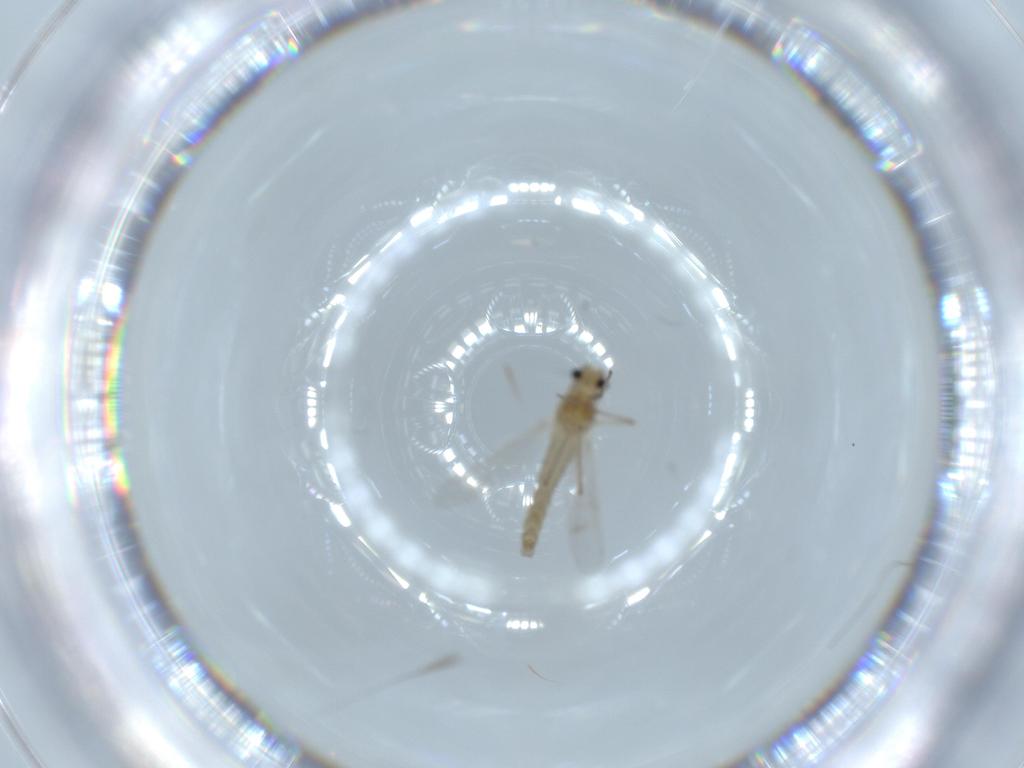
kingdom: Animalia
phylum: Arthropoda
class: Insecta
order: Diptera
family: Chironomidae
